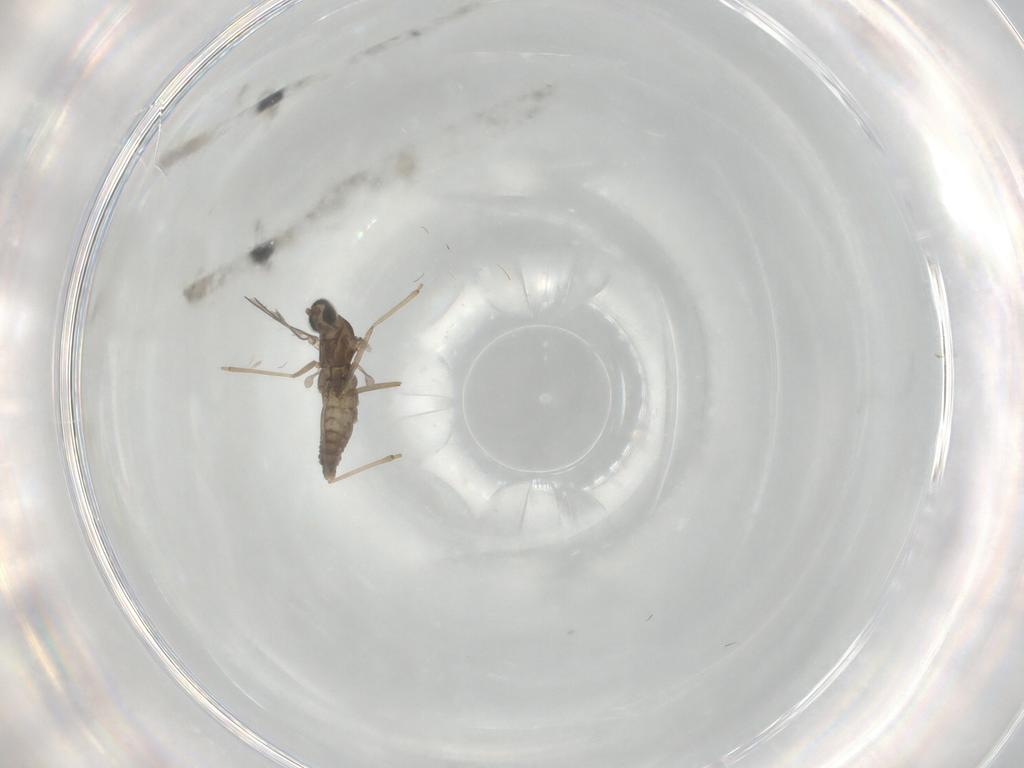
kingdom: Animalia
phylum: Arthropoda
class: Insecta
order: Diptera
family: Cecidomyiidae
